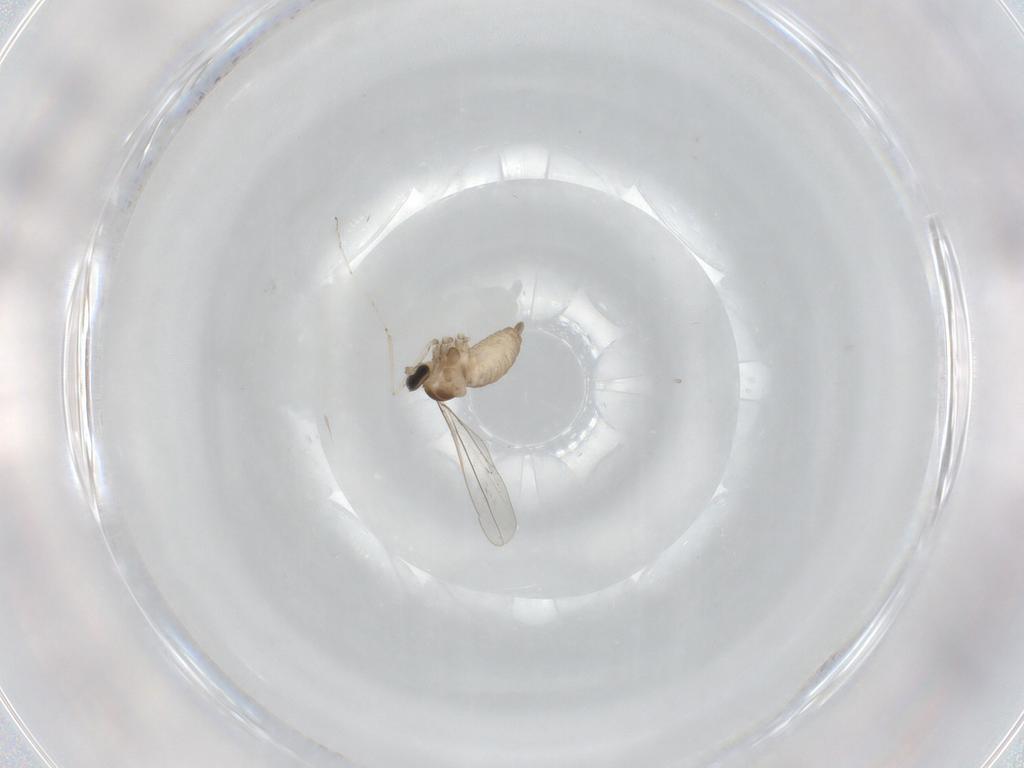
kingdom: Animalia
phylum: Arthropoda
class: Insecta
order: Diptera
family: Cecidomyiidae
